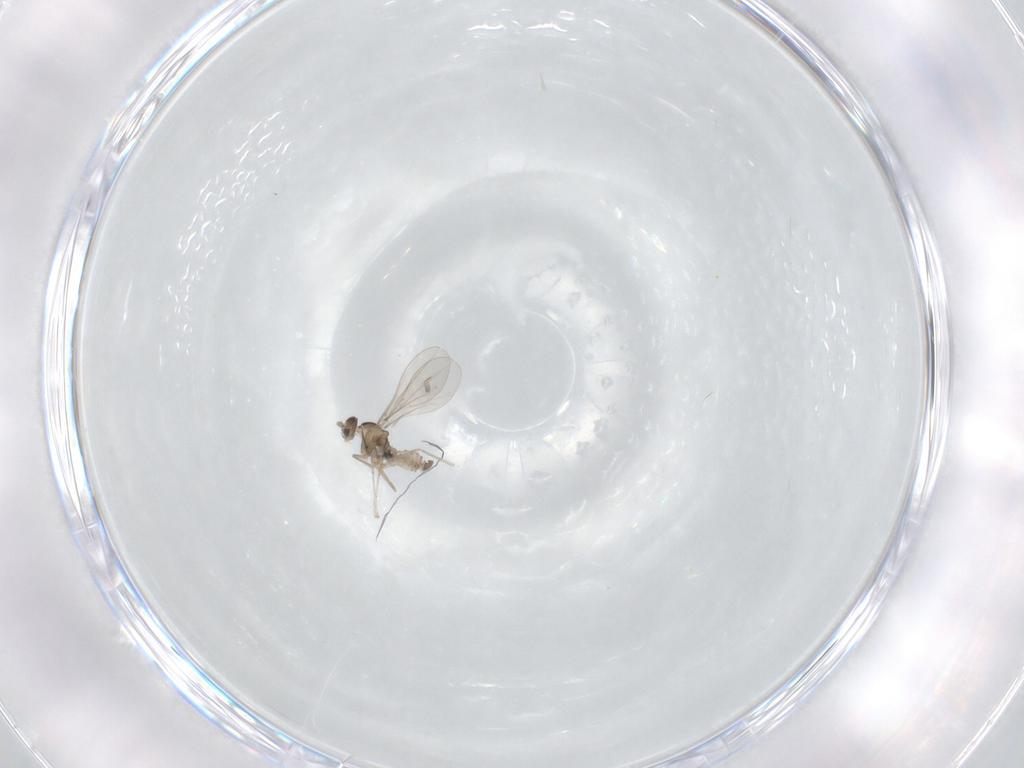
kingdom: Animalia
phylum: Arthropoda
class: Insecta
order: Diptera
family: Cecidomyiidae
